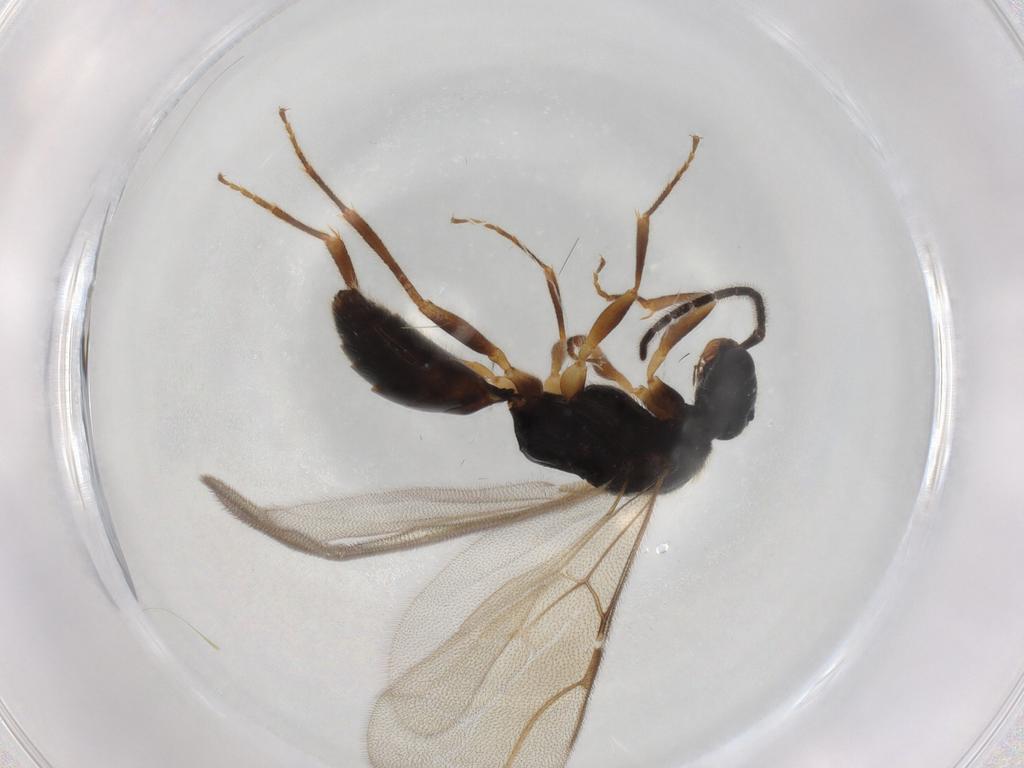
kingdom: Animalia
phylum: Arthropoda
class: Insecta
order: Hymenoptera
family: Bethylidae
